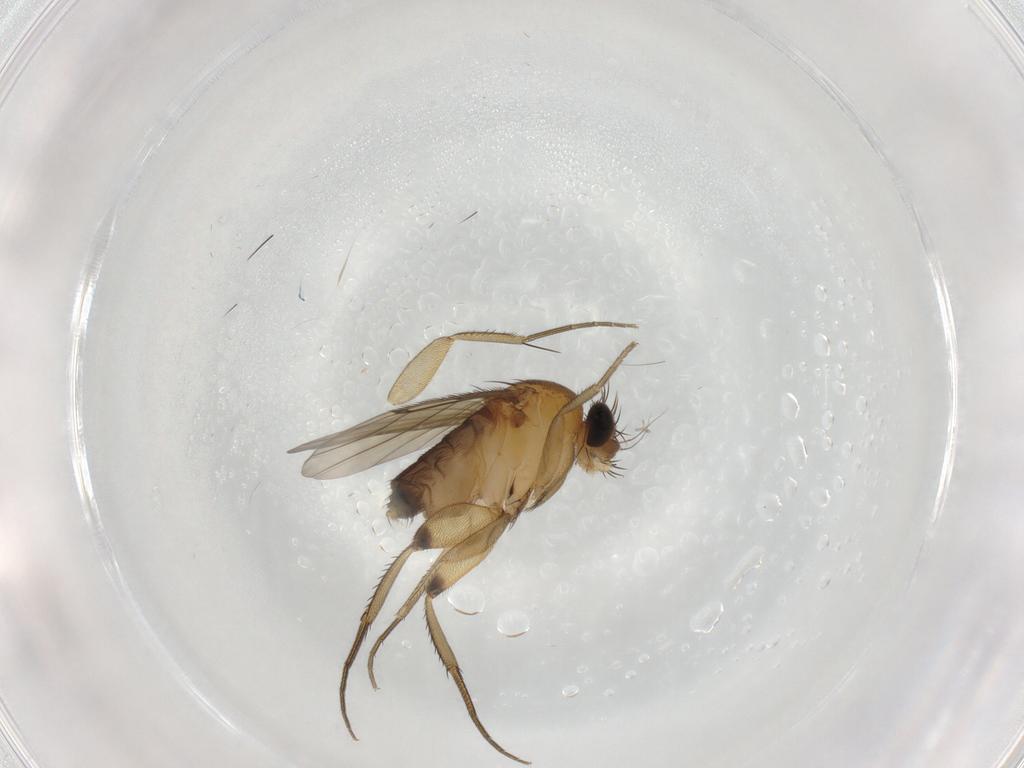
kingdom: Animalia
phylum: Arthropoda
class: Insecta
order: Diptera
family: Phoridae
